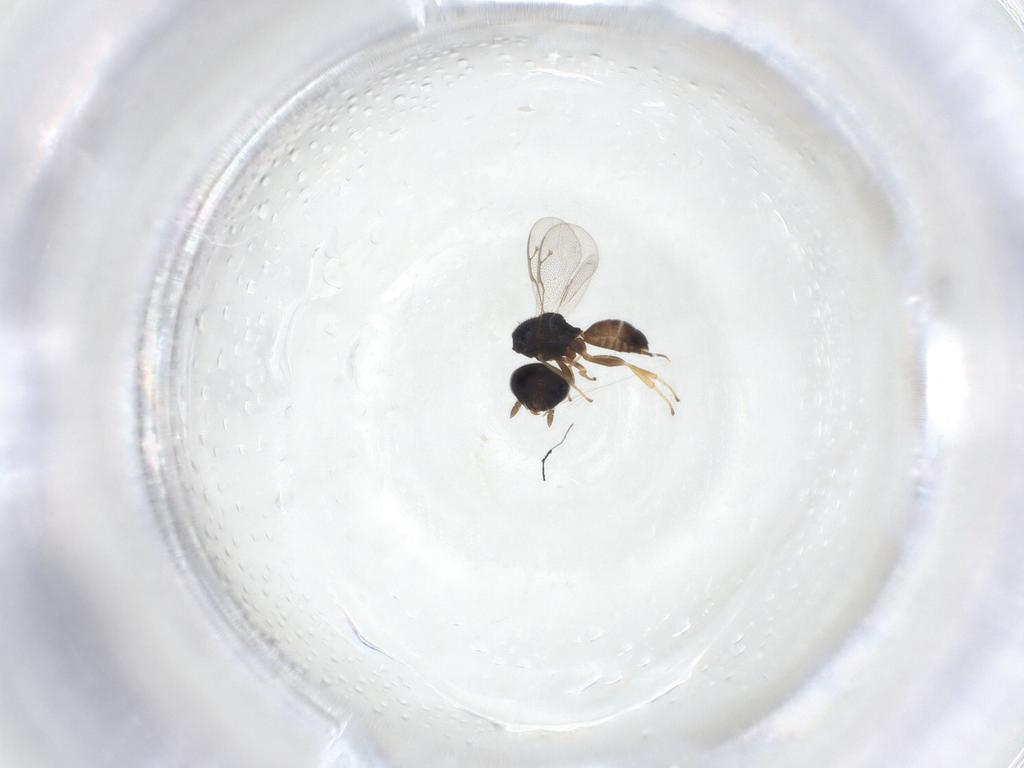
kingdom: Animalia
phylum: Arthropoda
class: Insecta
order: Hymenoptera
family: Pteromalidae
